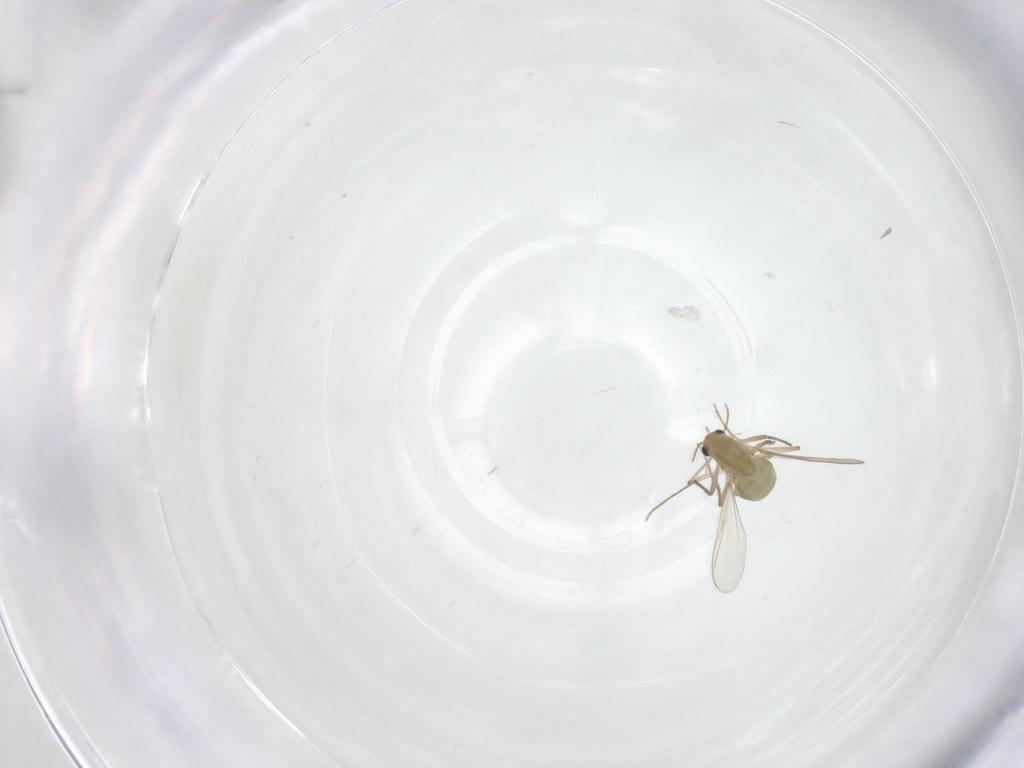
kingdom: Animalia
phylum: Arthropoda
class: Insecta
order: Diptera
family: Chironomidae
